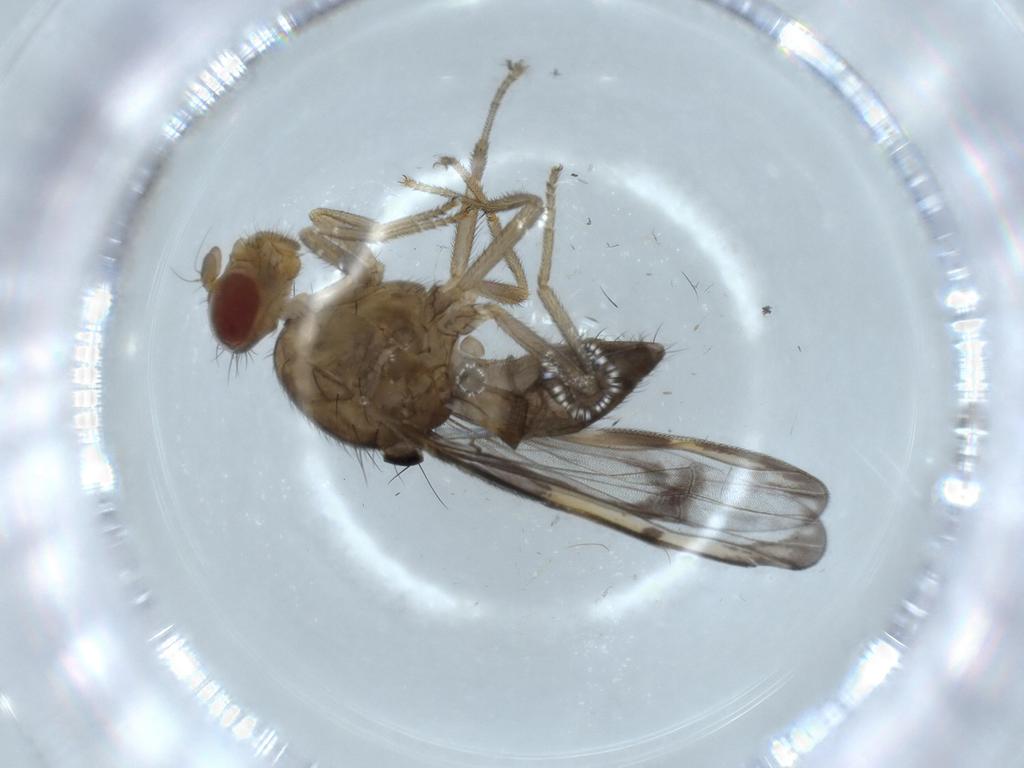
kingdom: Animalia
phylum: Arthropoda
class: Insecta
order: Diptera
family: Ulidiidae
